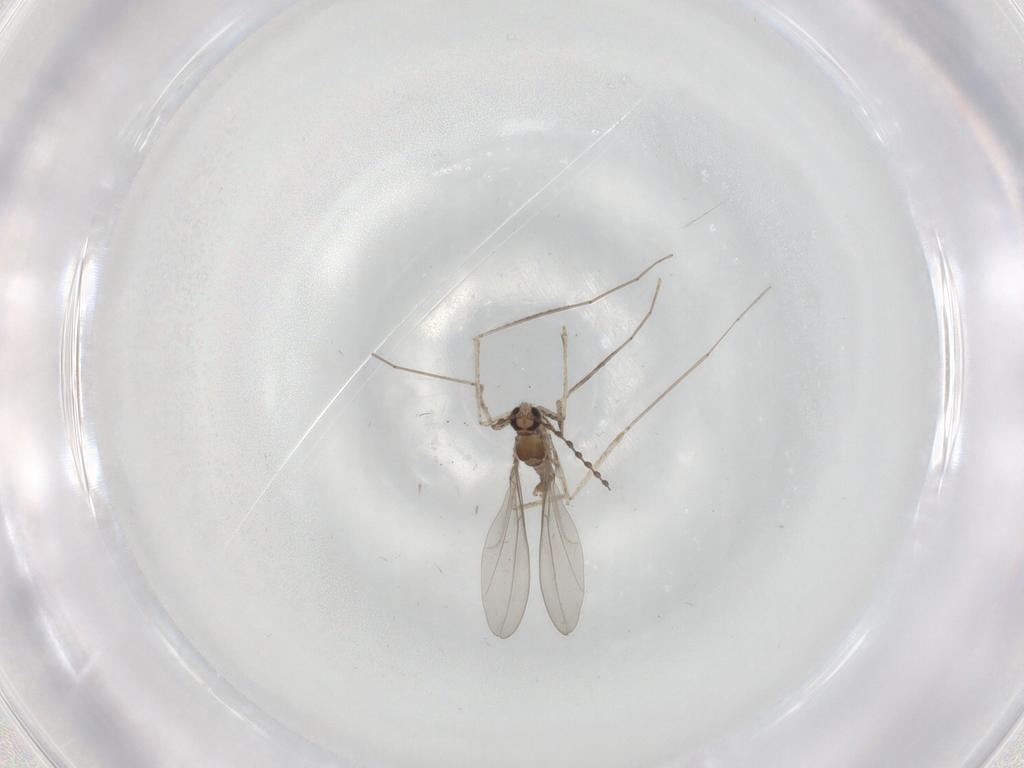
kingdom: Animalia
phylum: Arthropoda
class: Insecta
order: Diptera
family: Cecidomyiidae
